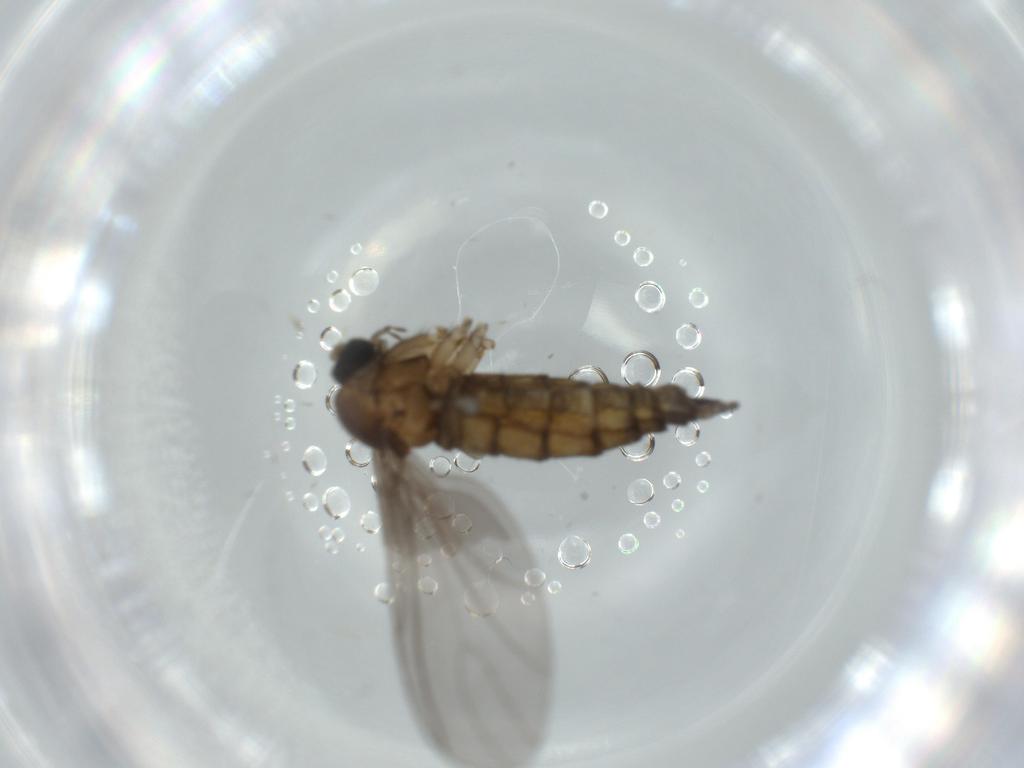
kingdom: Animalia
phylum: Arthropoda
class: Insecta
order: Diptera
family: Sciaridae
